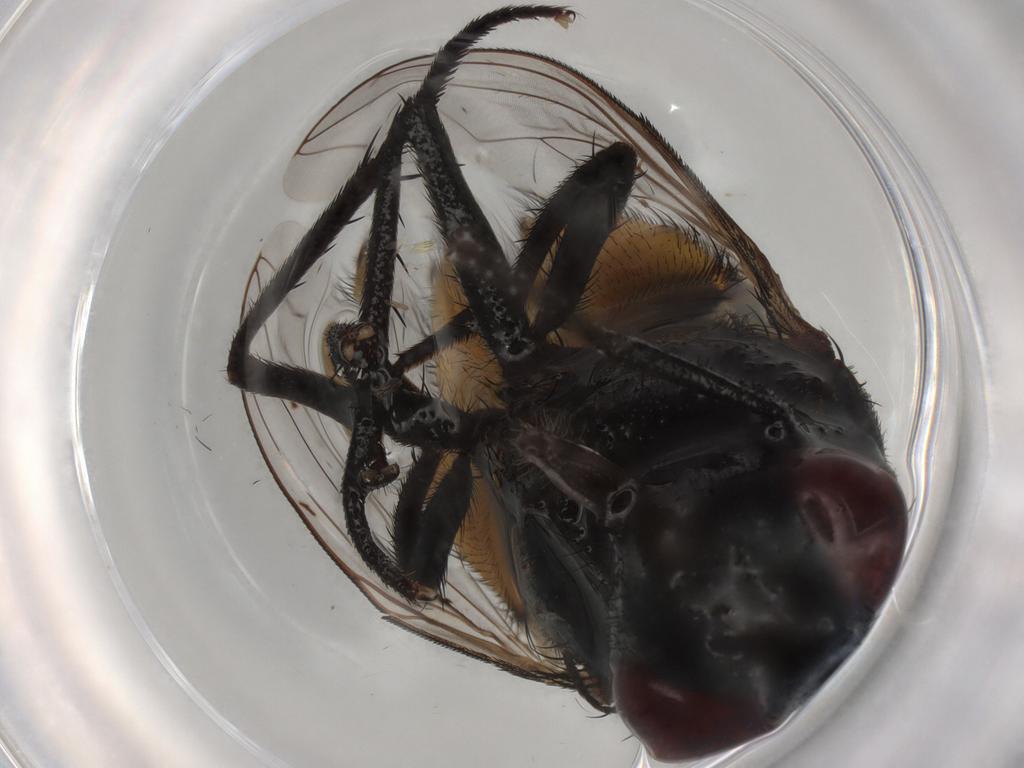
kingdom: Animalia
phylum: Arthropoda
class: Insecta
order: Diptera
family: Cecidomyiidae
